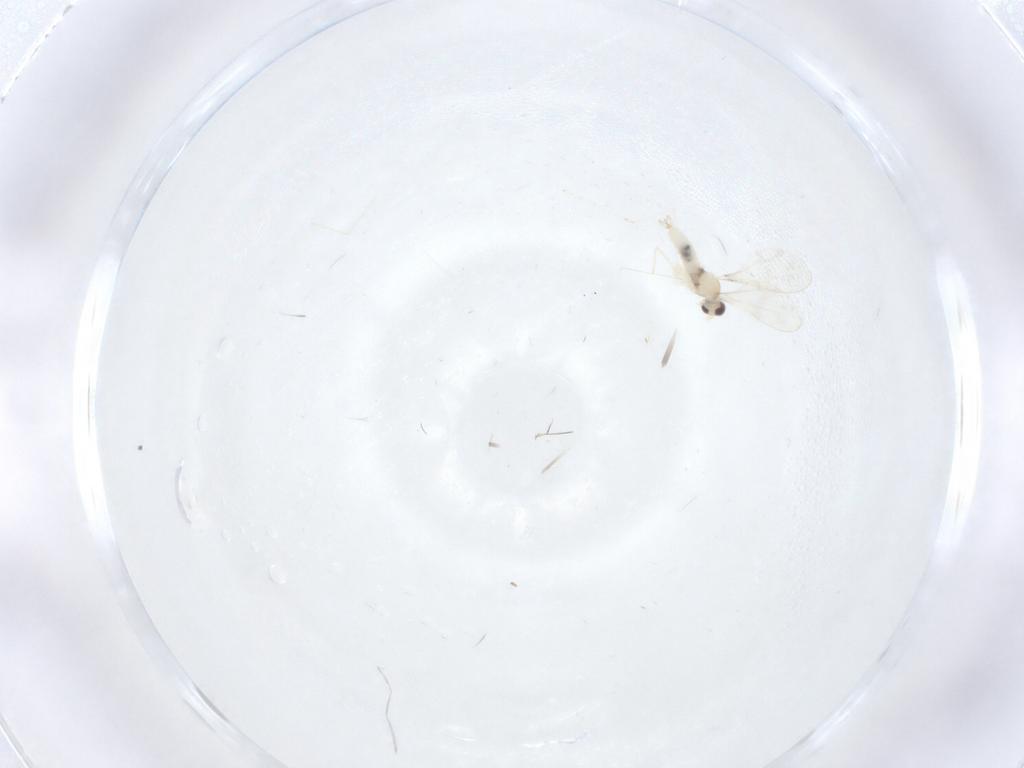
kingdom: Animalia
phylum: Arthropoda
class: Insecta
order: Diptera
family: Cecidomyiidae
